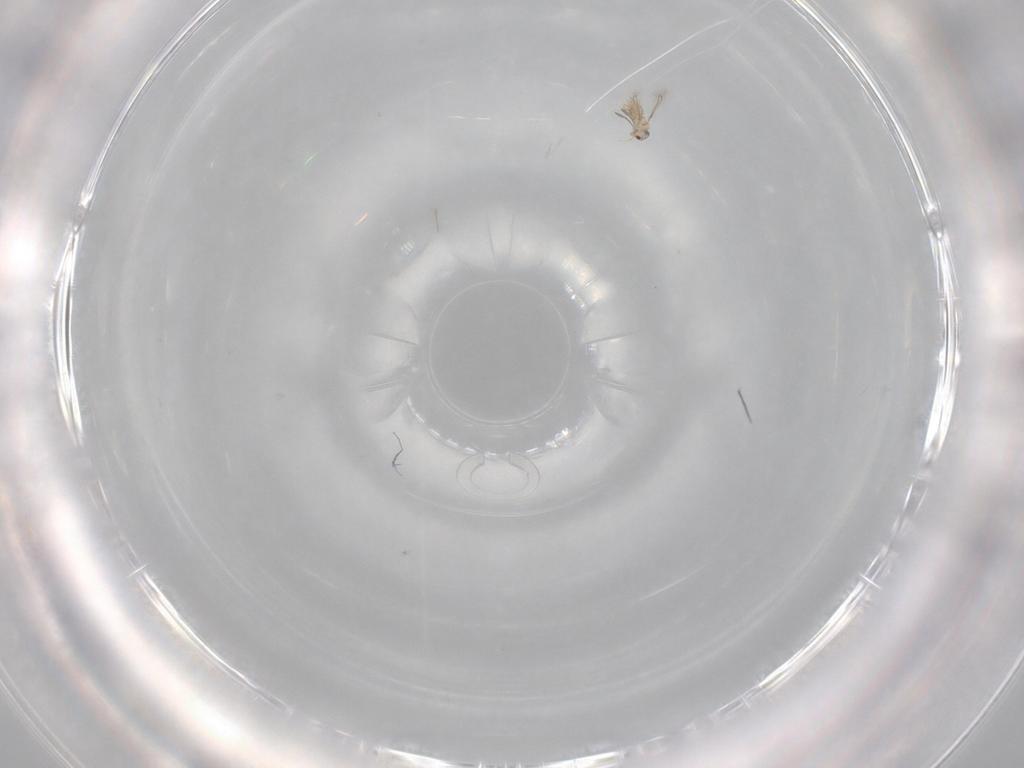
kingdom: Animalia
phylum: Arthropoda
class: Insecta
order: Hymenoptera
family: Mymaridae
